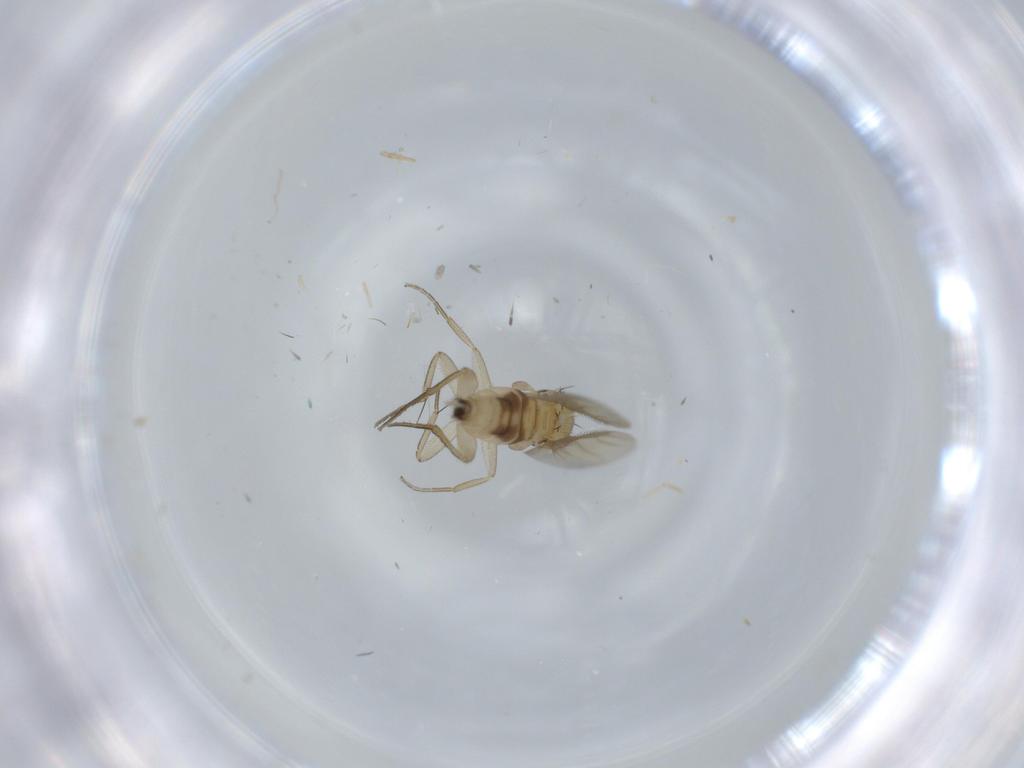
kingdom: Animalia
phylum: Arthropoda
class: Insecta
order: Diptera
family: Phoridae
